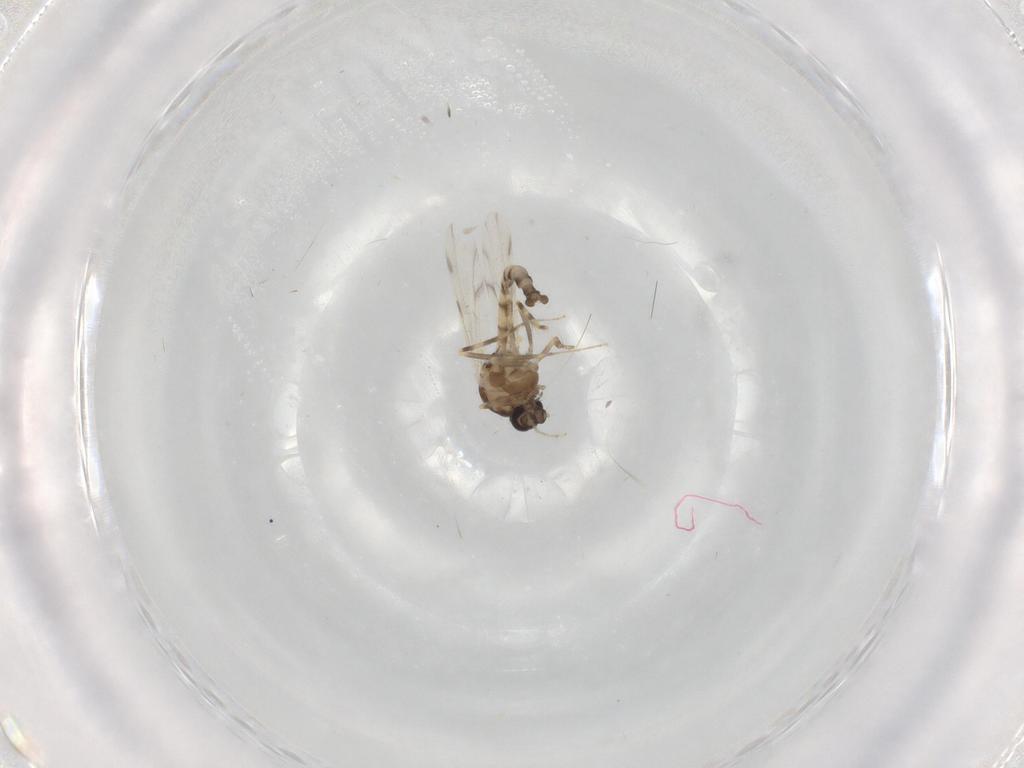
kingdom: Animalia
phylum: Arthropoda
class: Insecta
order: Diptera
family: Ceratopogonidae
